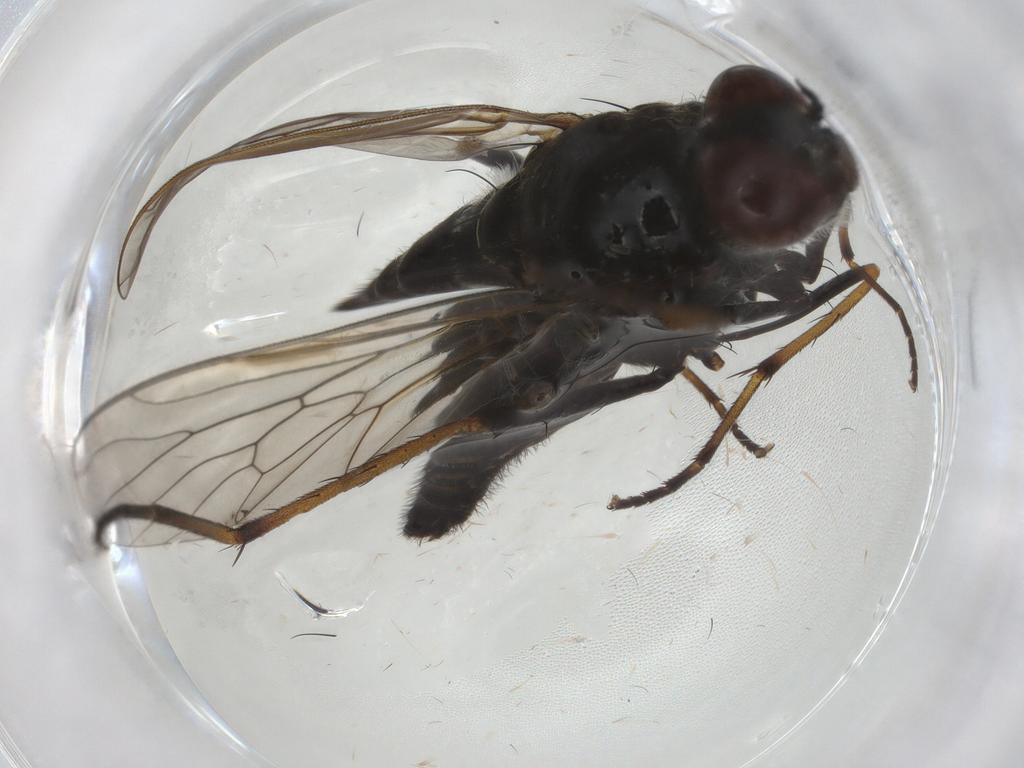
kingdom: Animalia
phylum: Arthropoda
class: Insecta
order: Diptera
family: Therevidae
